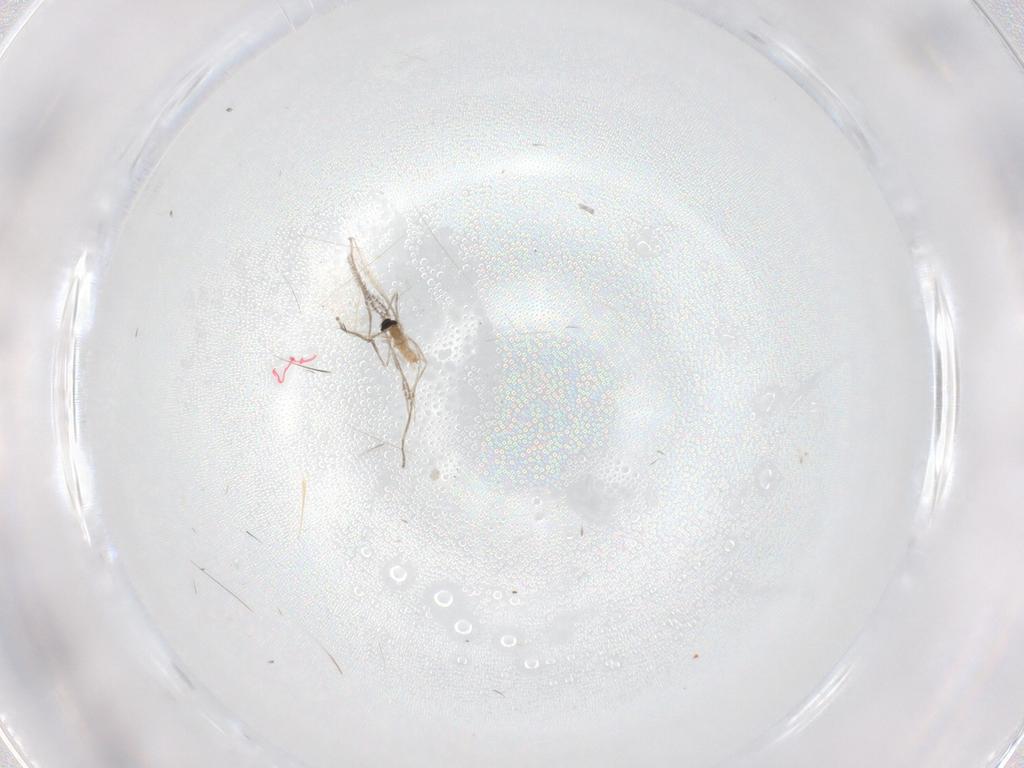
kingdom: Animalia
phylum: Arthropoda
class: Insecta
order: Diptera
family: Ceratopogonidae
